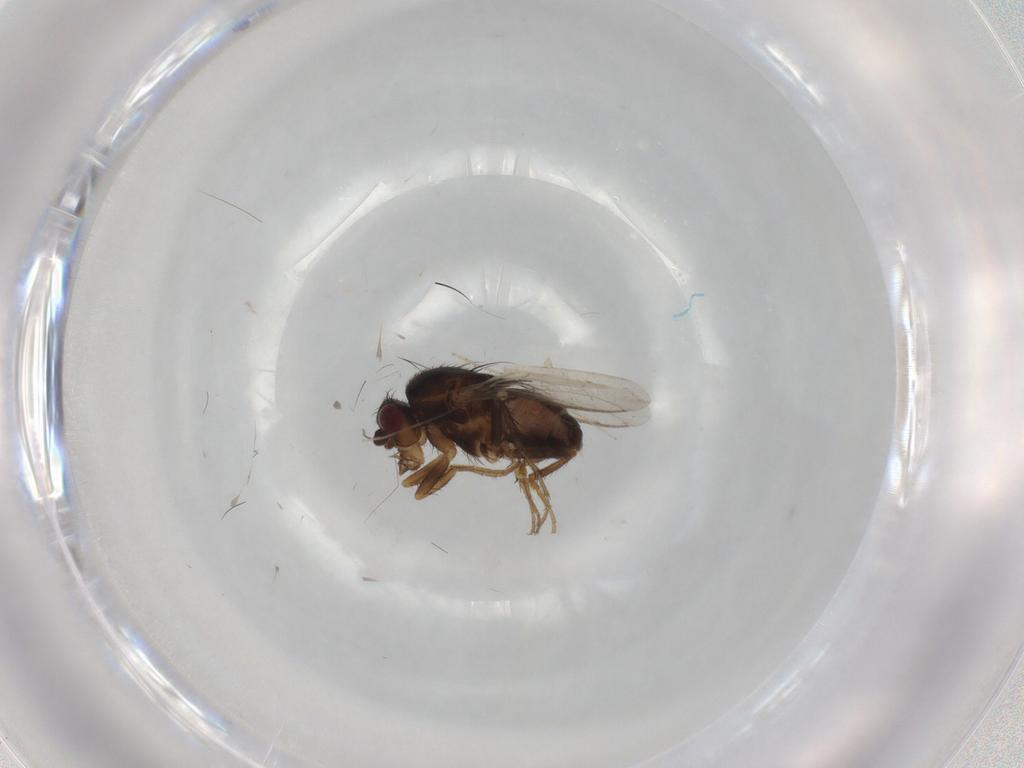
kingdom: Animalia
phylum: Arthropoda
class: Insecta
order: Diptera
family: Sphaeroceridae
